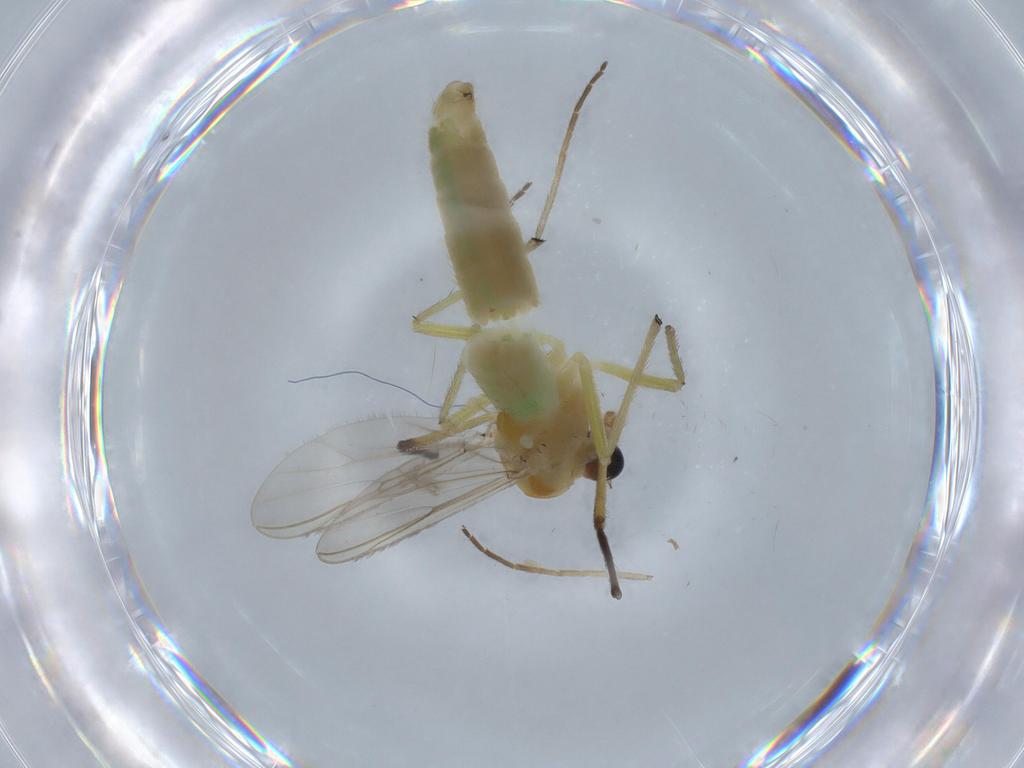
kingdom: Animalia
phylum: Arthropoda
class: Insecta
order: Diptera
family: Chironomidae
